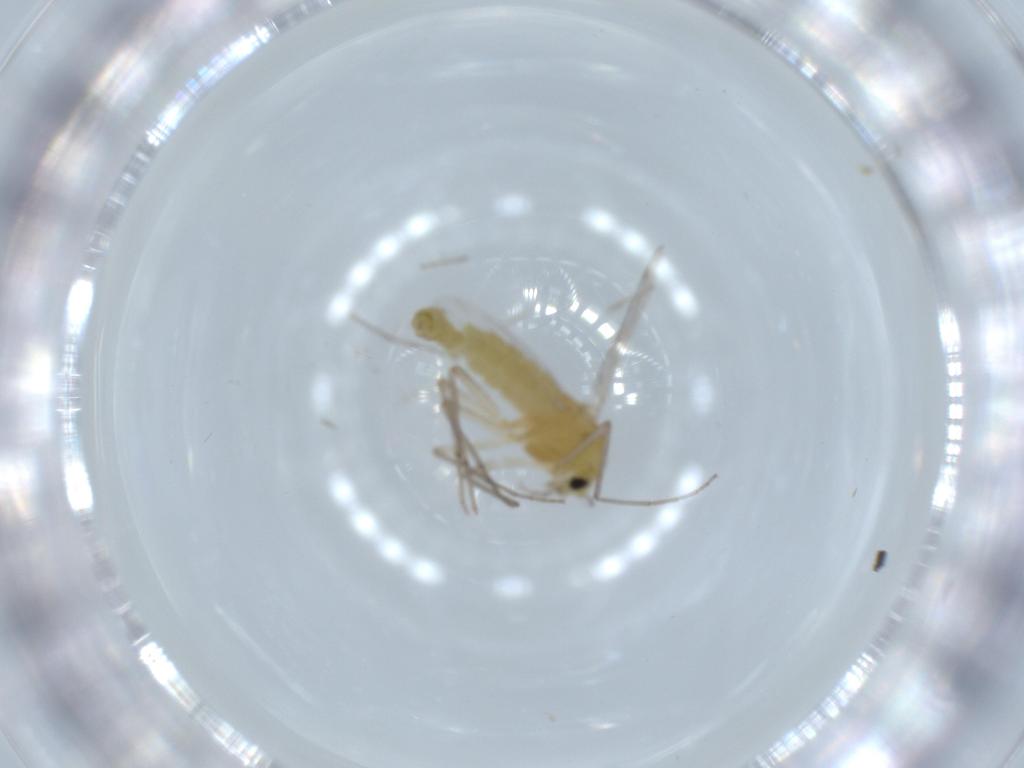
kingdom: Animalia
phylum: Arthropoda
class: Insecta
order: Diptera
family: Chironomidae
